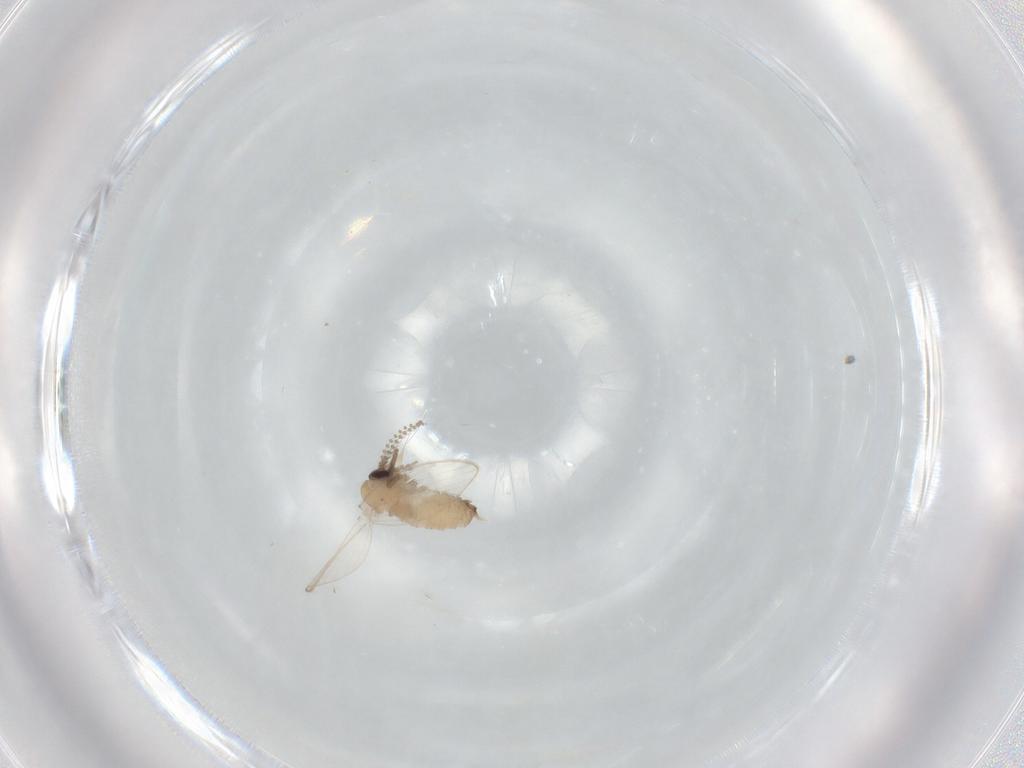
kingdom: Animalia
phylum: Arthropoda
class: Insecta
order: Diptera
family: Psychodidae
